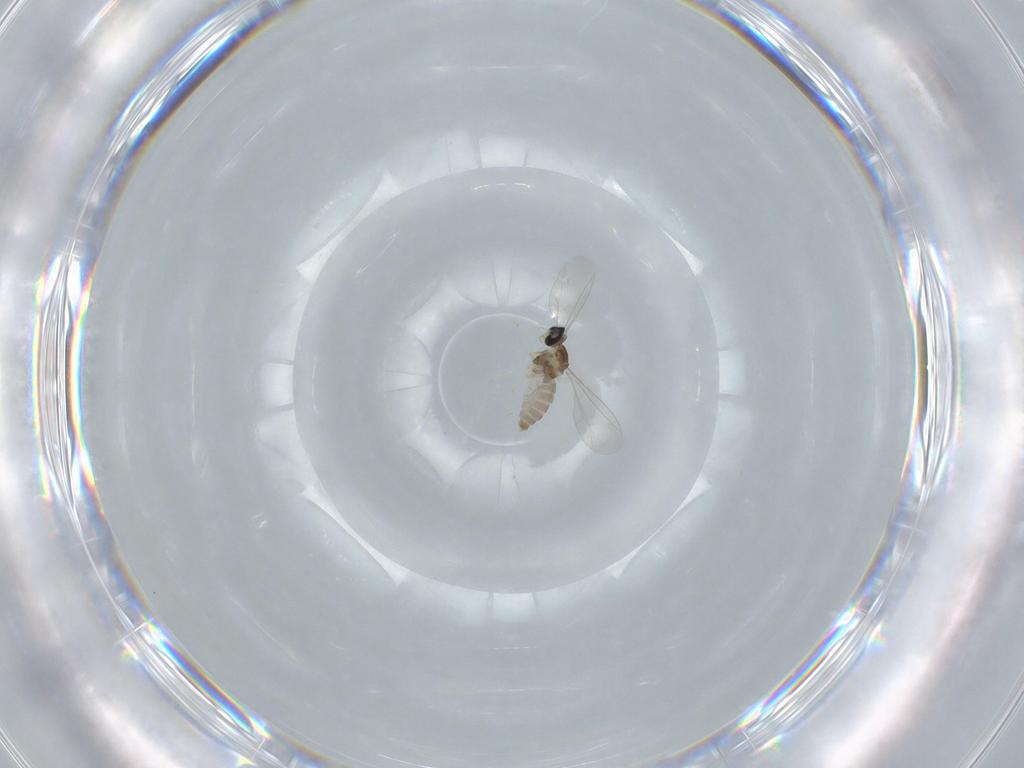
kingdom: Animalia
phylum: Arthropoda
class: Insecta
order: Diptera
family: Cecidomyiidae
